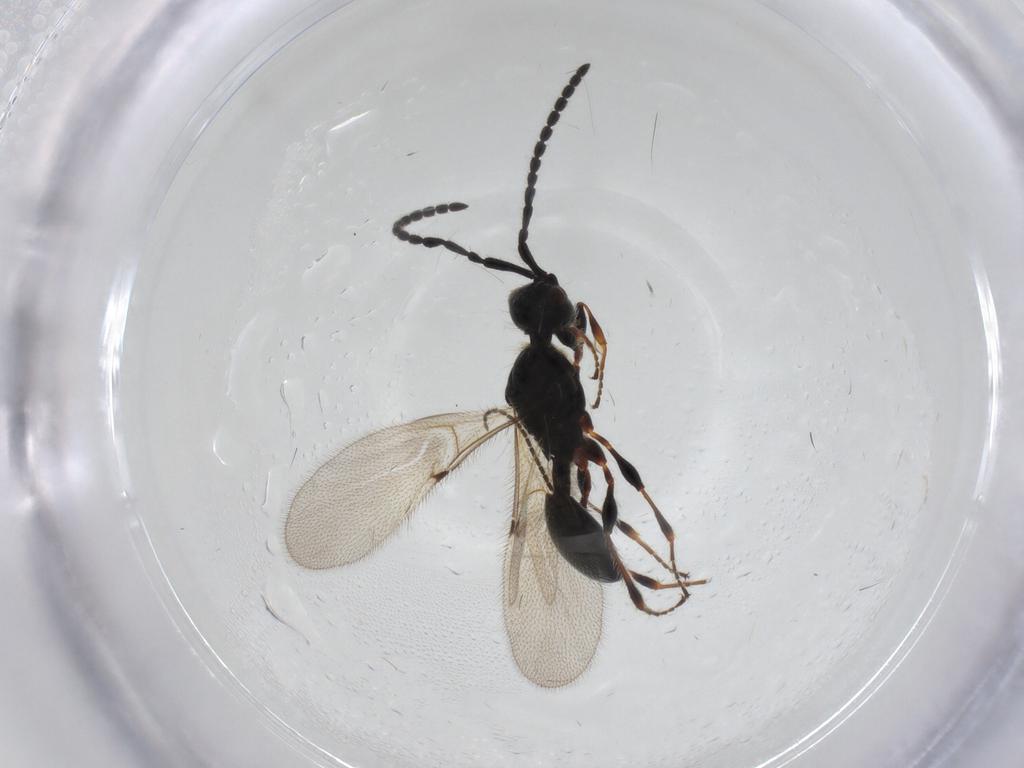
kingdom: Animalia
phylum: Arthropoda
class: Insecta
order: Hymenoptera
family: Diapriidae
